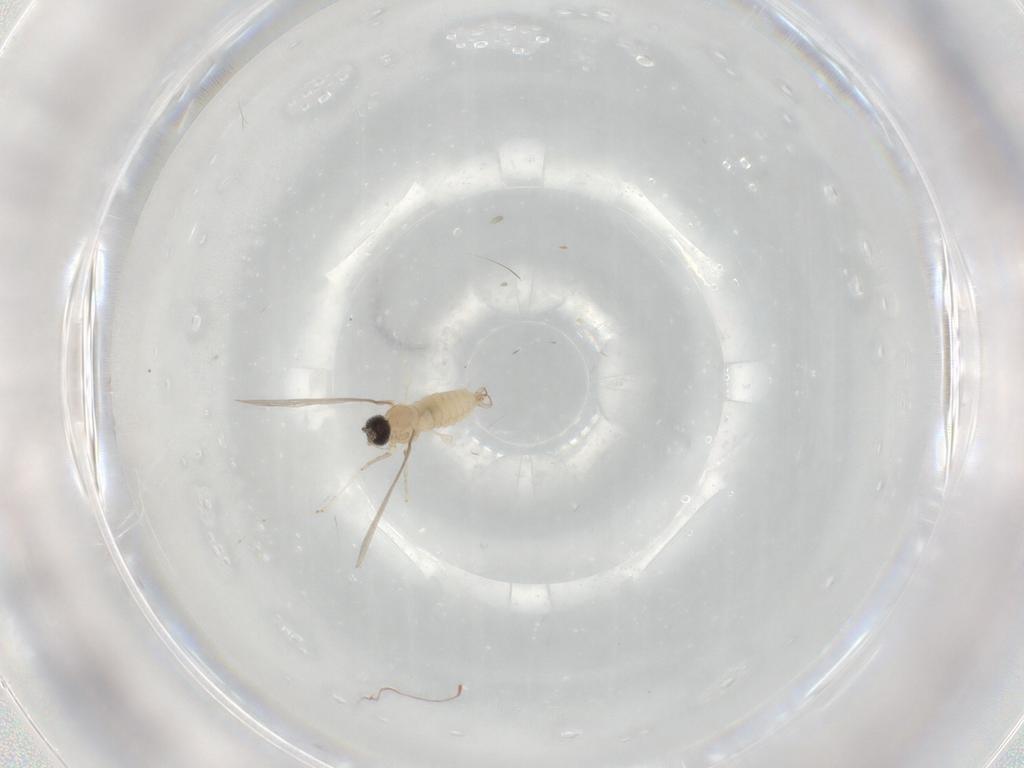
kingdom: Animalia
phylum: Arthropoda
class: Insecta
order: Diptera
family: Cecidomyiidae
